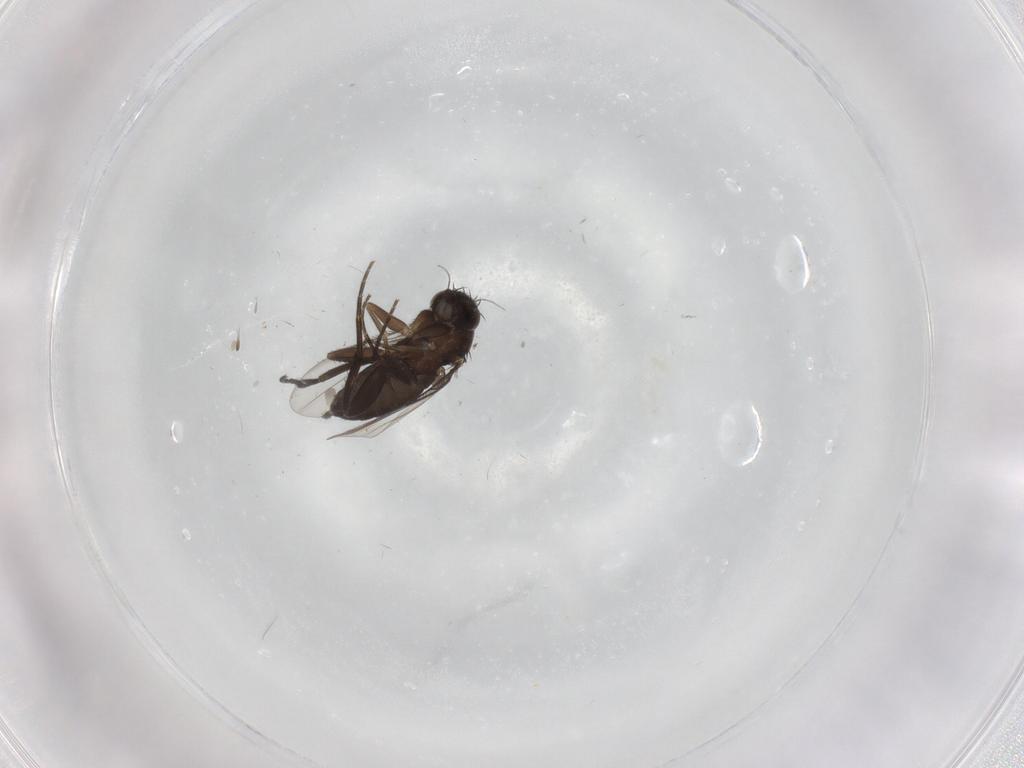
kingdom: Animalia
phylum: Arthropoda
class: Insecta
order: Diptera
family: Phoridae
